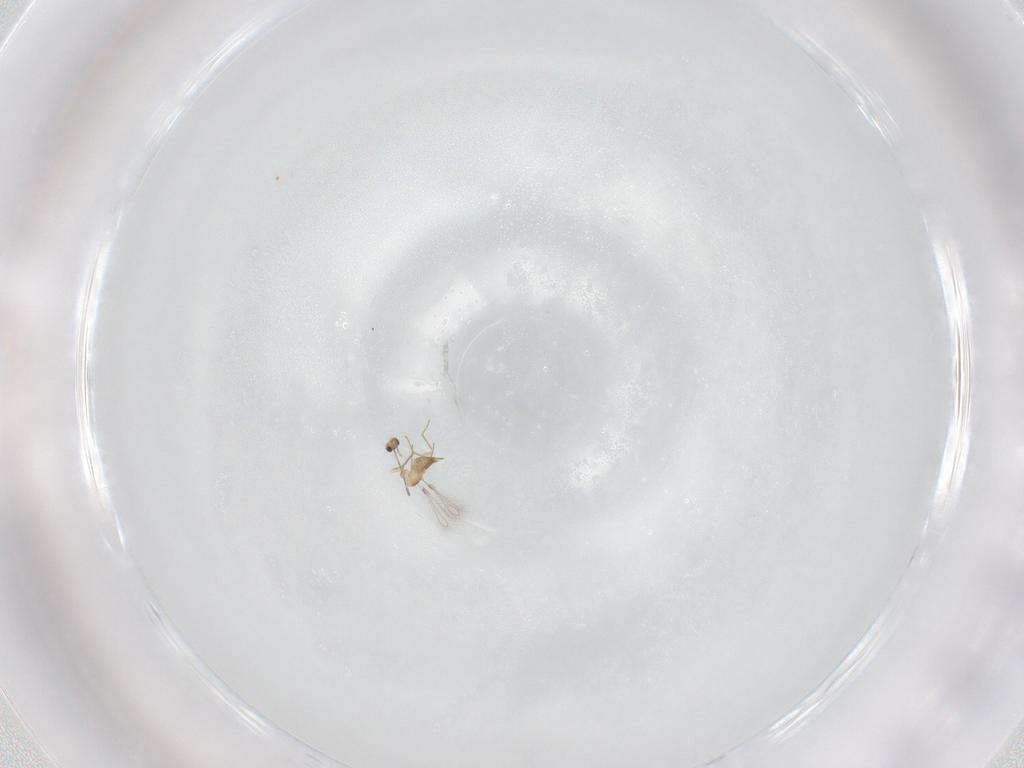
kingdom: Animalia
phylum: Arthropoda
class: Insecta
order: Hymenoptera
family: Mymaridae
